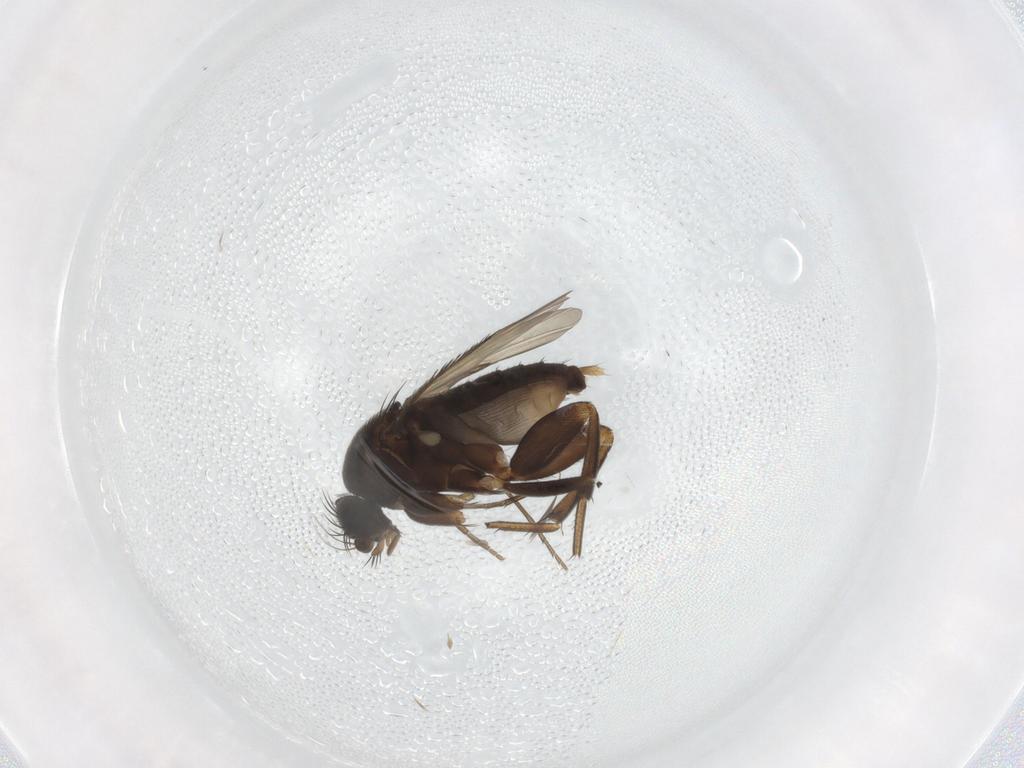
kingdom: Animalia
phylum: Arthropoda
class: Insecta
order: Diptera
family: Phoridae
